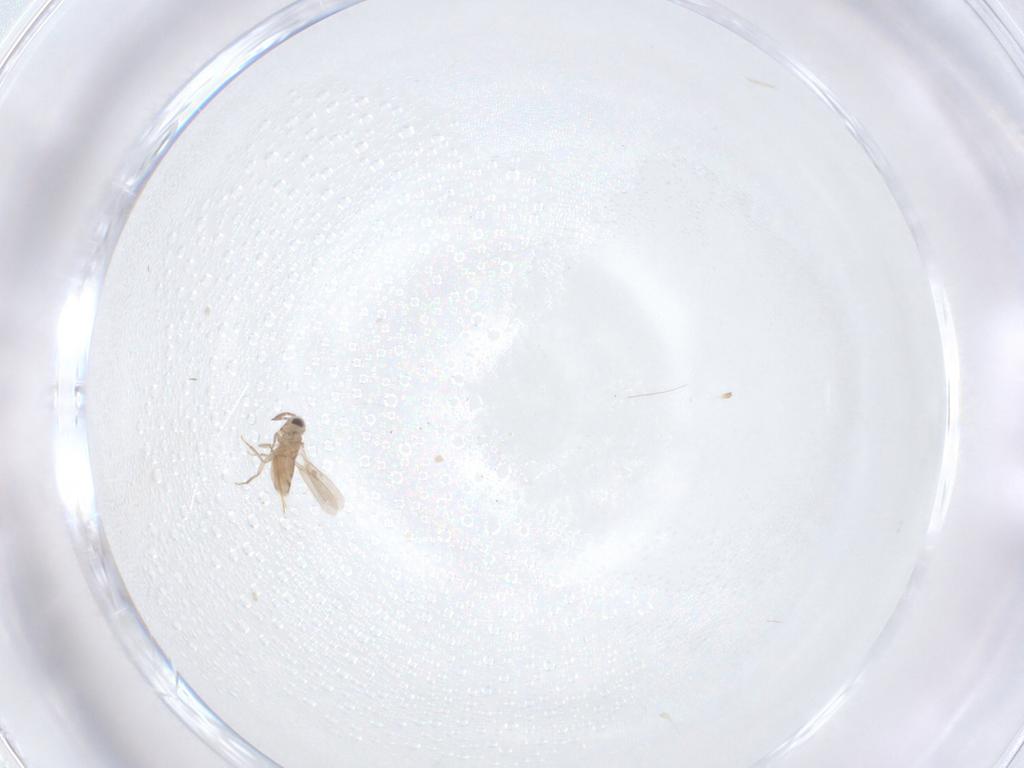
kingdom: Animalia
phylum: Arthropoda
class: Insecta
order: Hymenoptera
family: Aphelinidae
